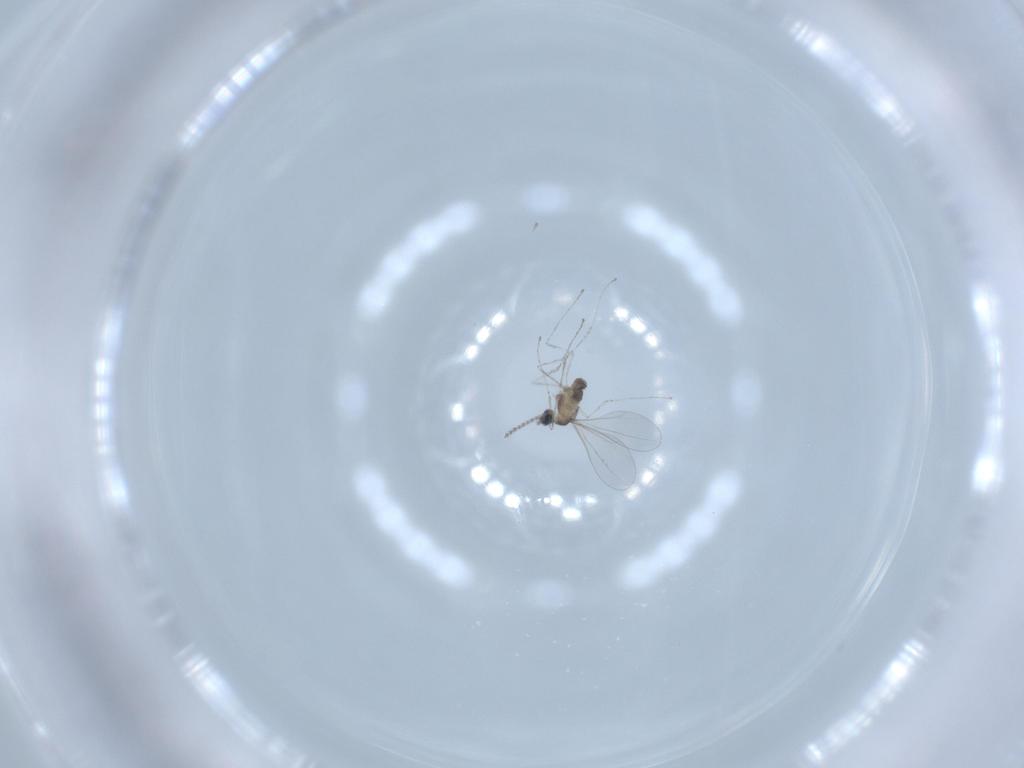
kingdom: Animalia
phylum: Arthropoda
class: Insecta
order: Diptera
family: Cecidomyiidae
